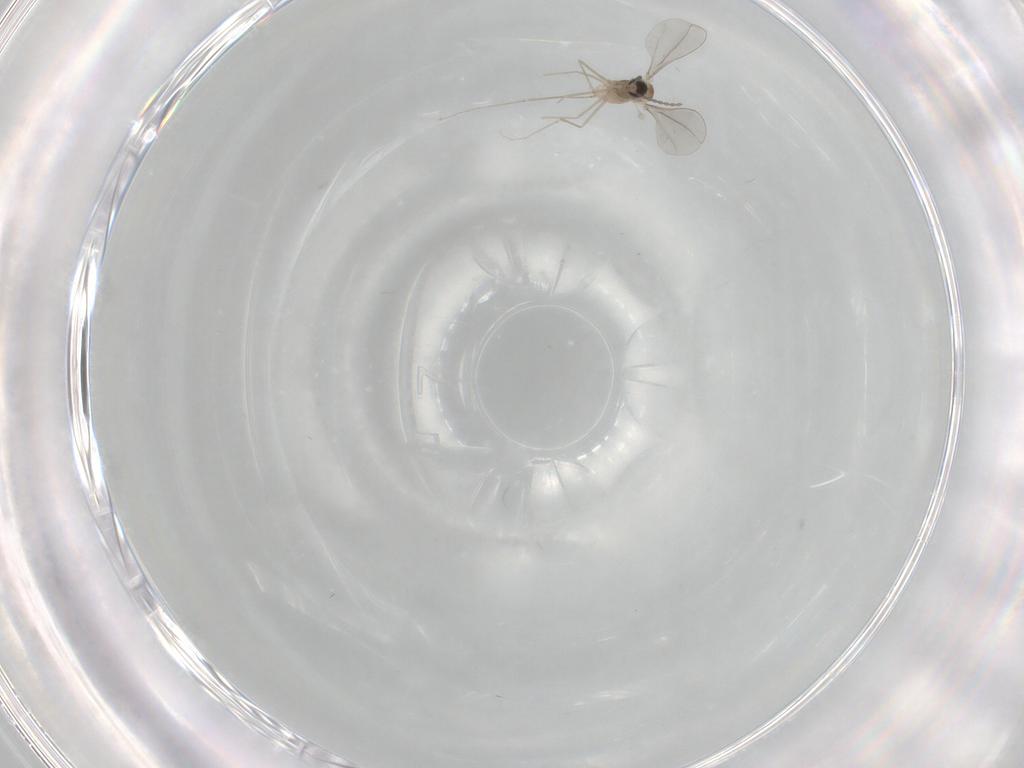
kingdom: Animalia
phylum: Arthropoda
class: Insecta
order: Diptera
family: Cecidomyiidae
